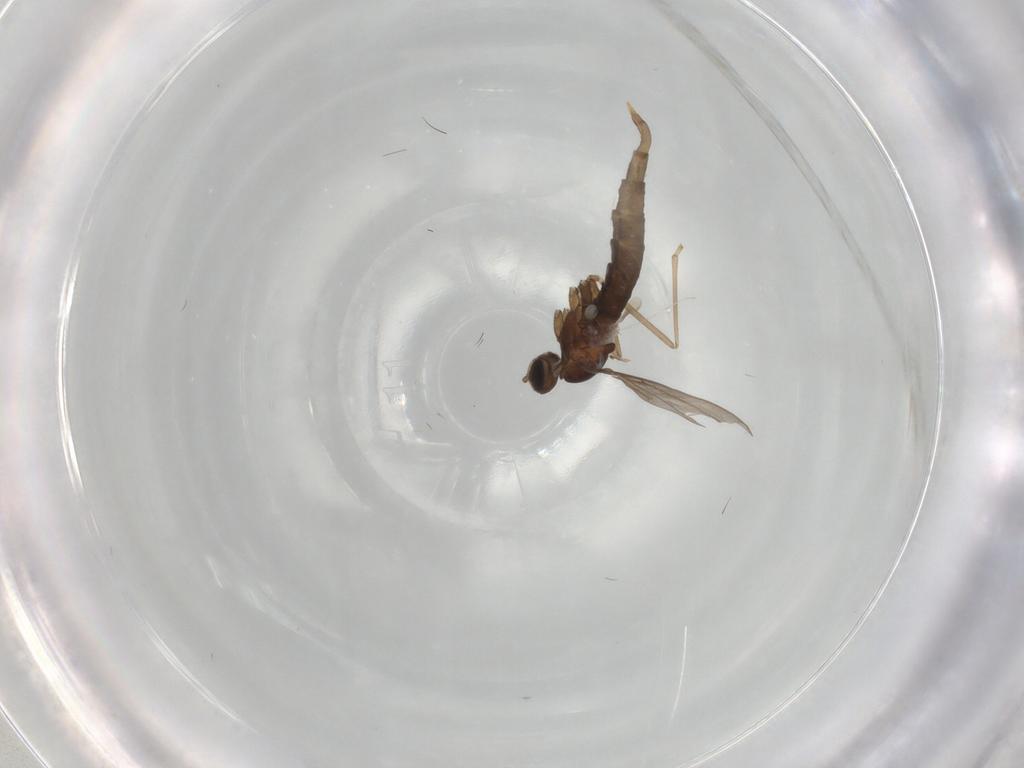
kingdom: Animalia
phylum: Arthropoda
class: Insecta
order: Diptera
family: Cecidomyiidae
